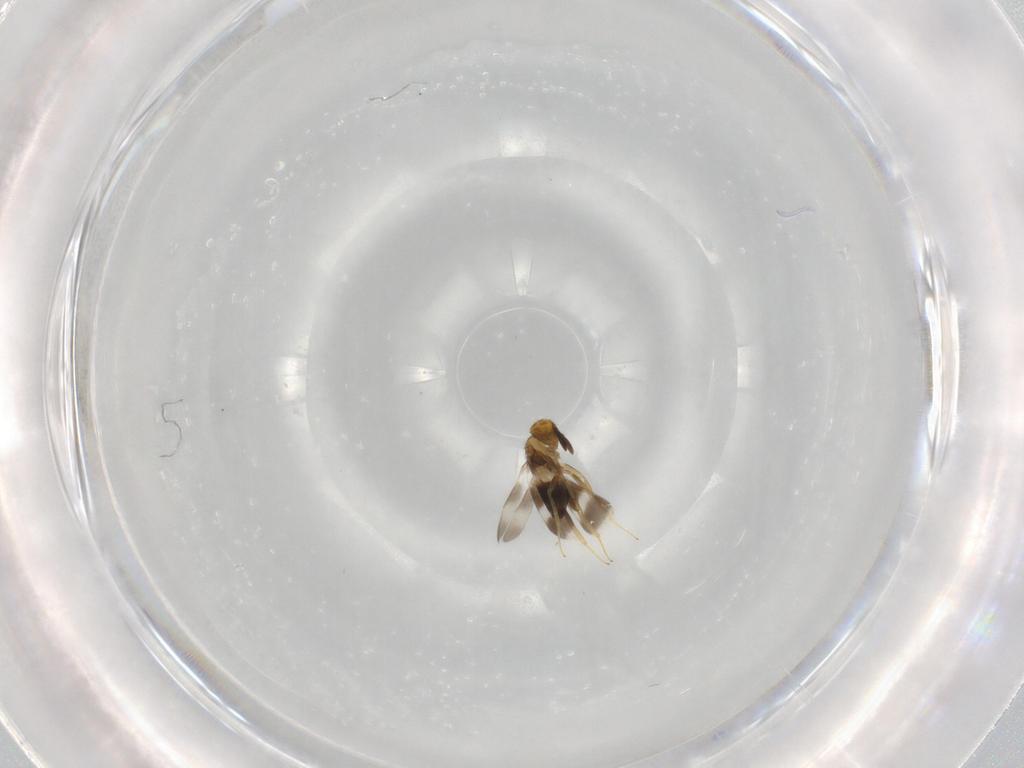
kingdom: Animalia
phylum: Arthropoda
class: Insecta
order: Hymenoptera
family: Aphelinidae
